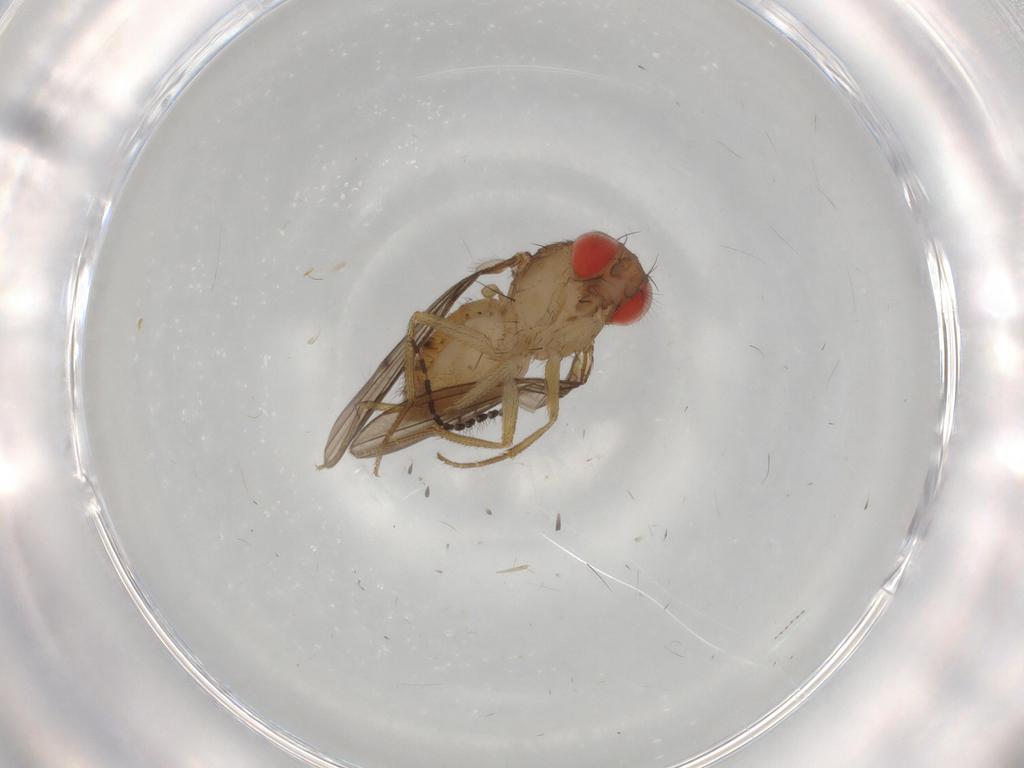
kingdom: Animalia
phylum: Arthropoda
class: Insecta
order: Diptera
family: Drosophilidae
